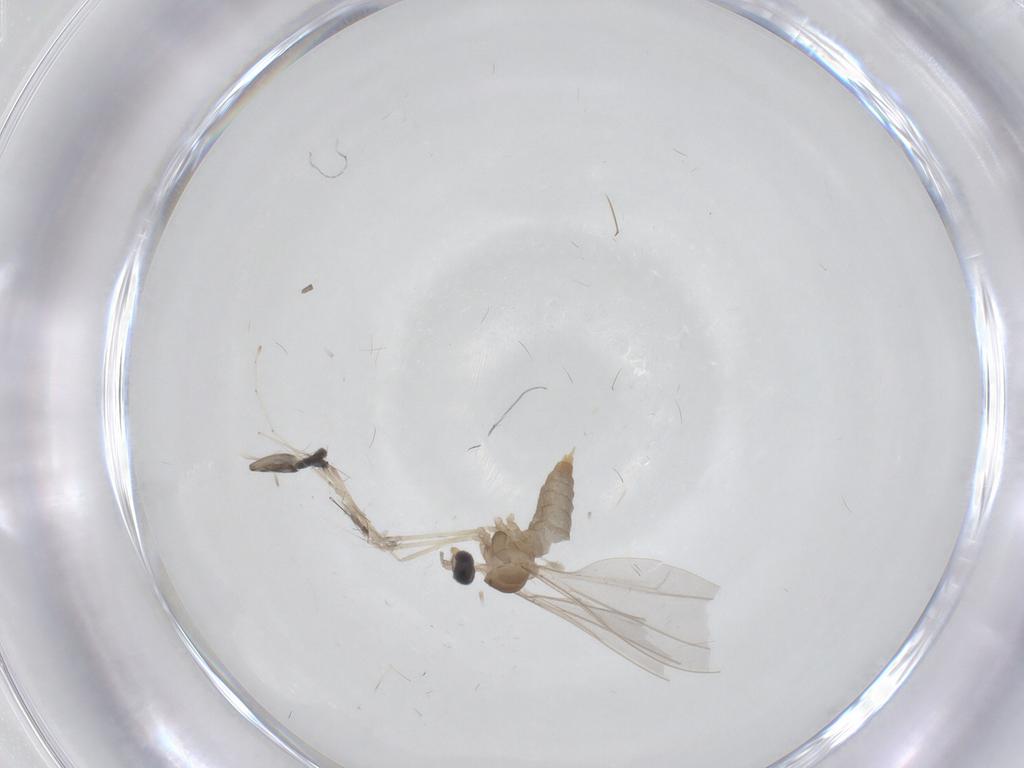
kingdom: Animalia
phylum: Arthropoda
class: Insecta
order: Diptera
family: Cecidomyiidae
